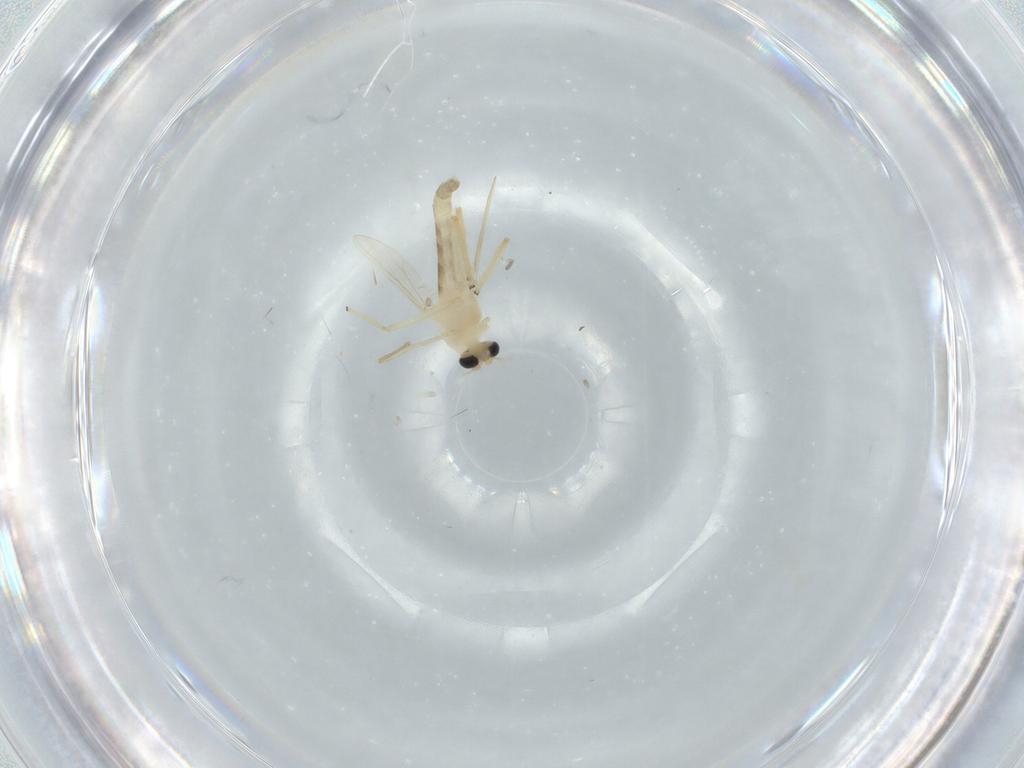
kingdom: Animalia
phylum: Arthropoda
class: Insecta
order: Diptera
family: Chironomidae
